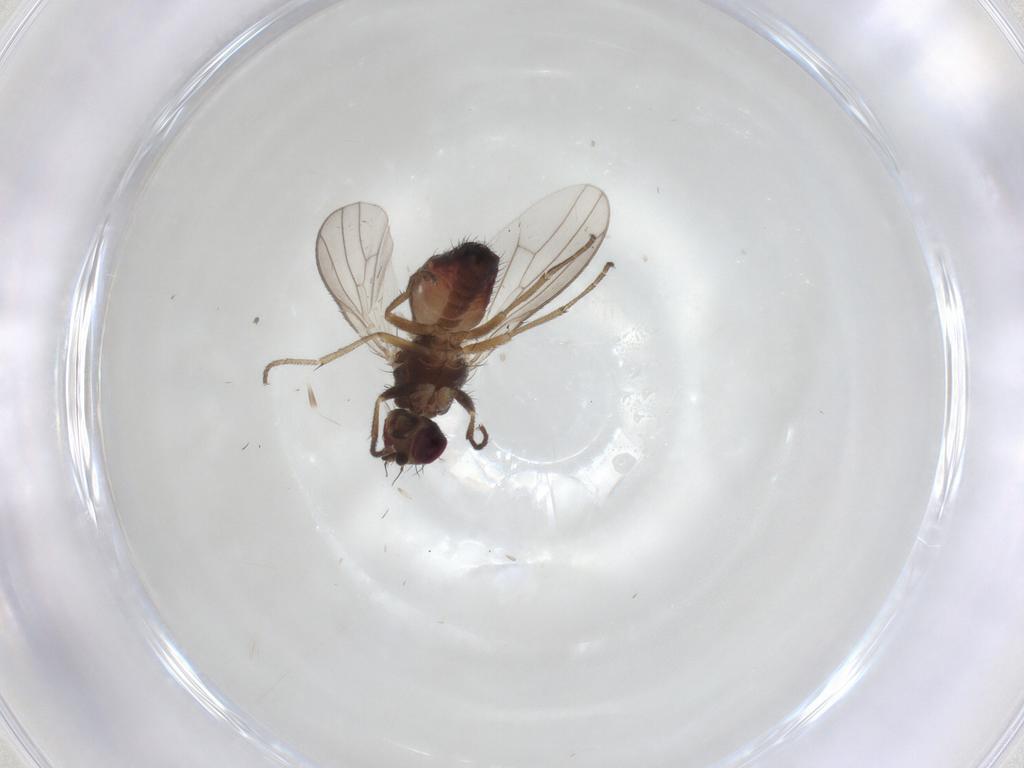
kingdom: Animalia
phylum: Arthropoda
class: Insecta
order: Diptera
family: Heleomyzidae
